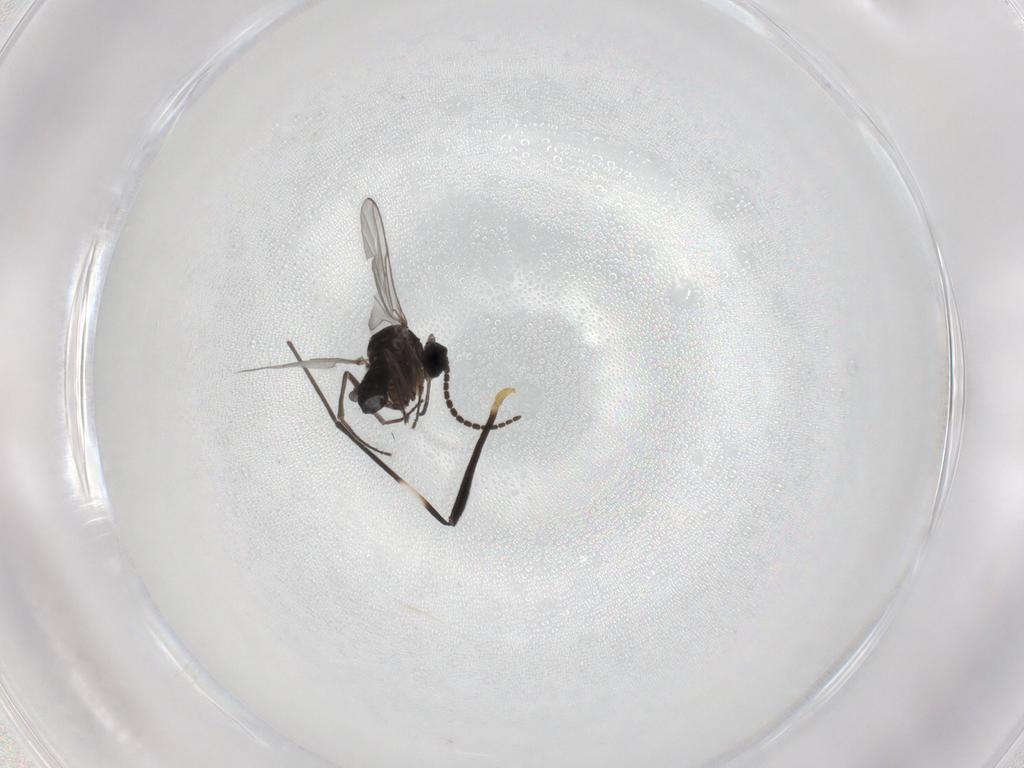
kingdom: Animalia
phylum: Arthropoda
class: Insecta
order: Diptera
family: Sciaridae
